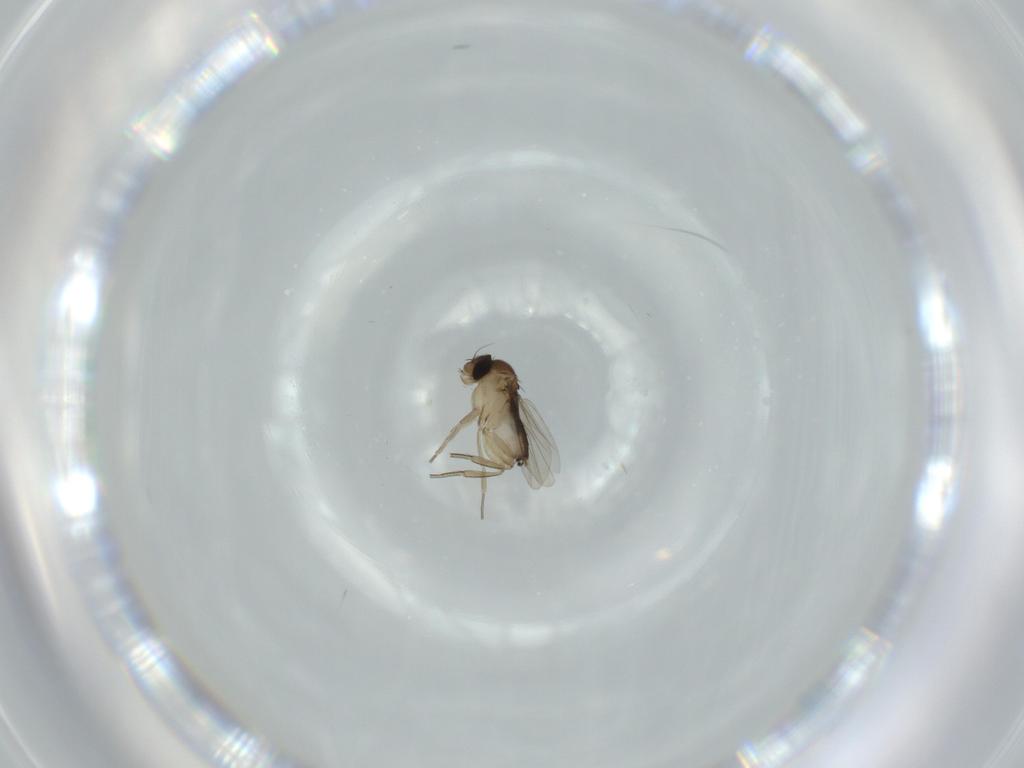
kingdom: Animalia
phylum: Arthropoda
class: Insecta
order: Diptera
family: Phoridae
